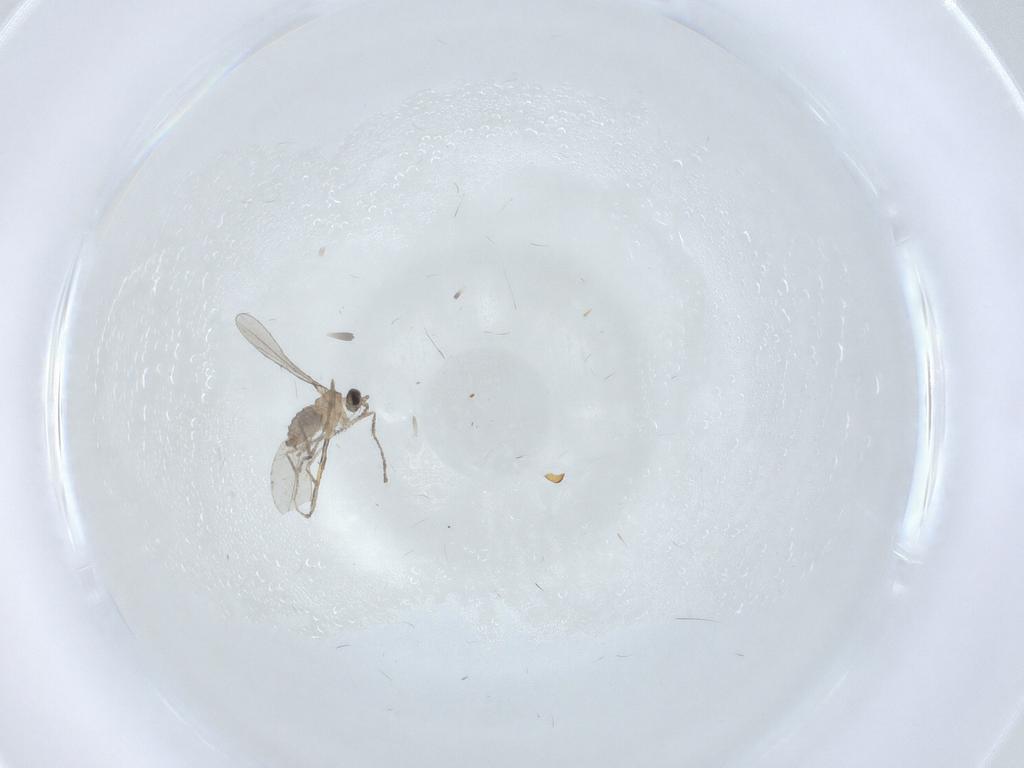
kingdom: Animalia
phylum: Arthropoda
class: Insecta
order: Diptera
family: Cecidomyiidae
